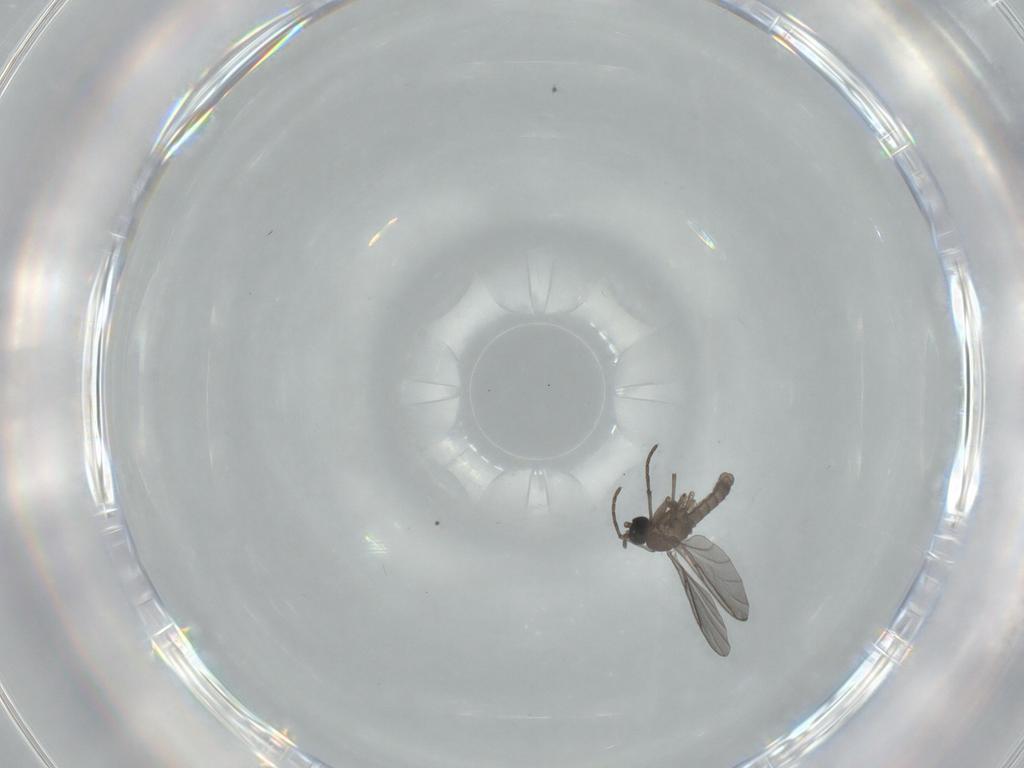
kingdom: Animalia
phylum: Arthropoda
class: Insecta
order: Diptera
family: Sciaridae
